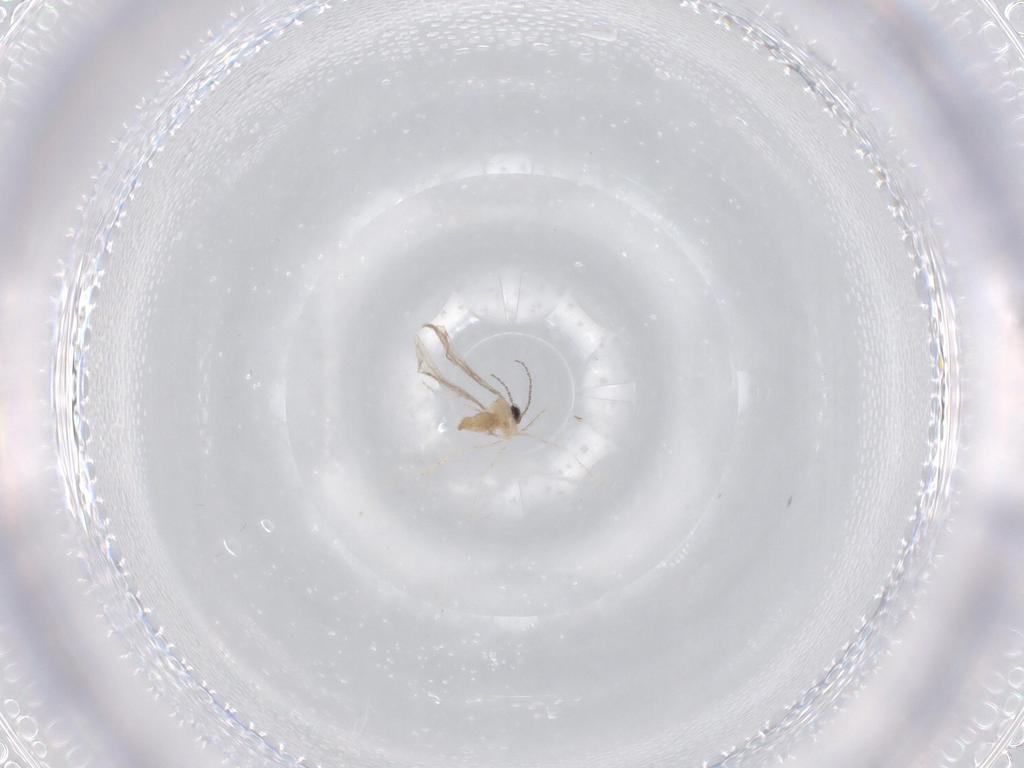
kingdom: Animalia
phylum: Arthropoda
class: Insecta
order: Diptera
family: Cecidomyiidae
